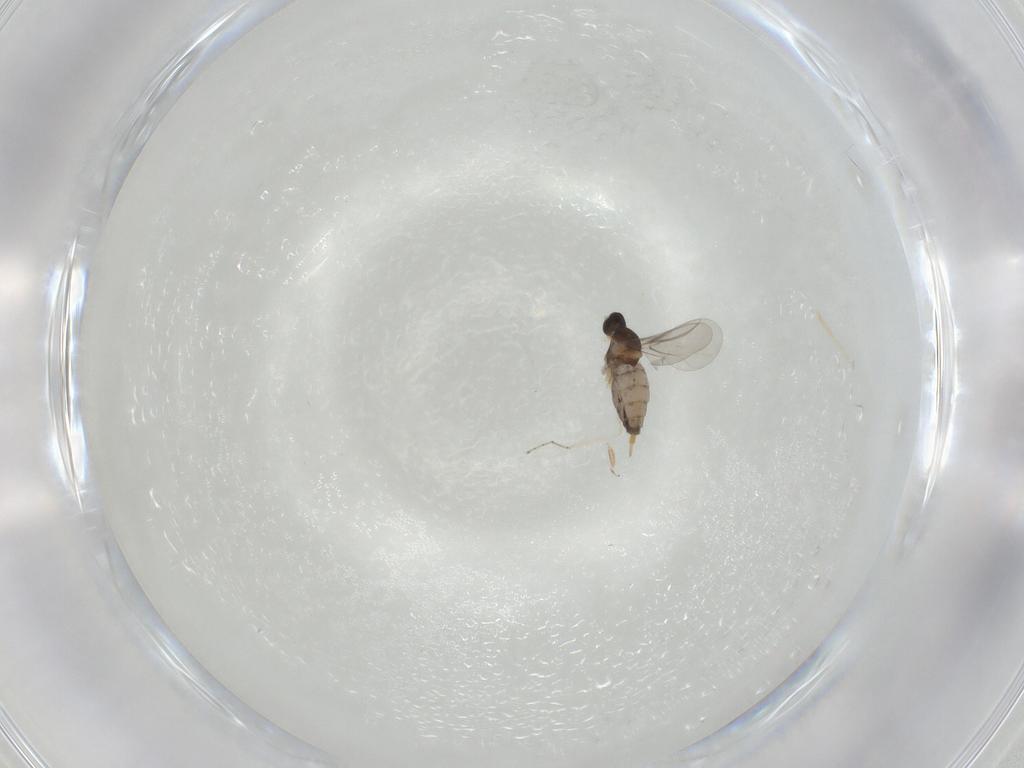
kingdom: Animalia
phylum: Arthropoda
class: Insecta
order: Diptera
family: Cecidomyiidae
